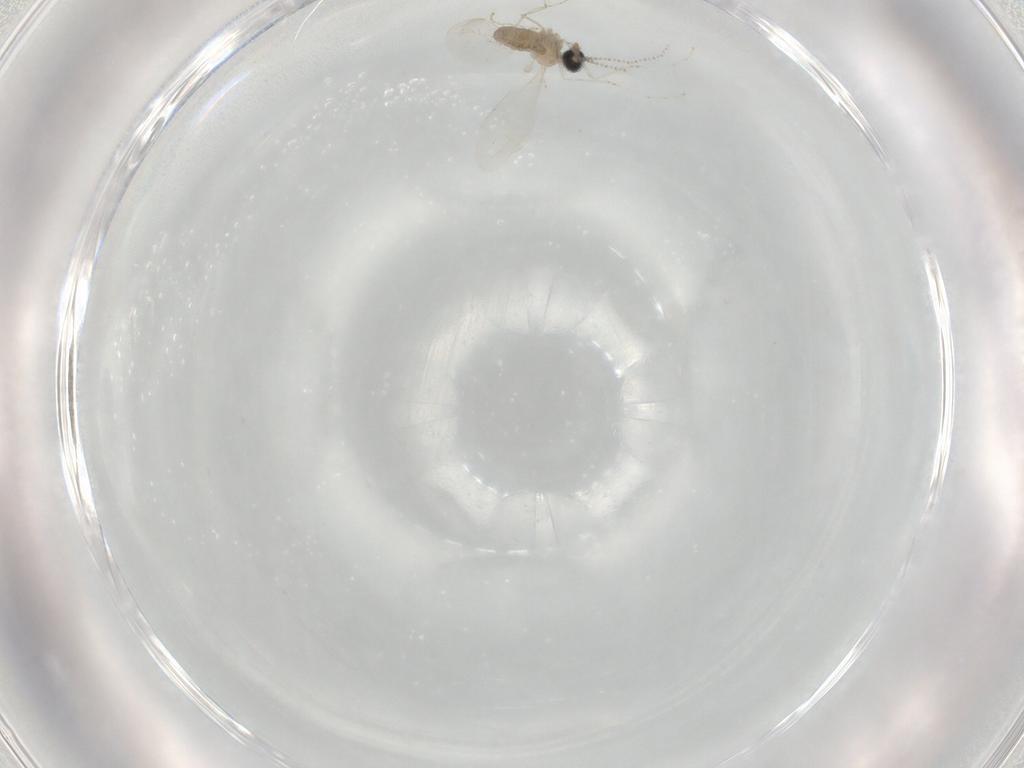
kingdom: Animalia
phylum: Arthropoda
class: Insecta
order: Diptera
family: Cecidomyiidae
